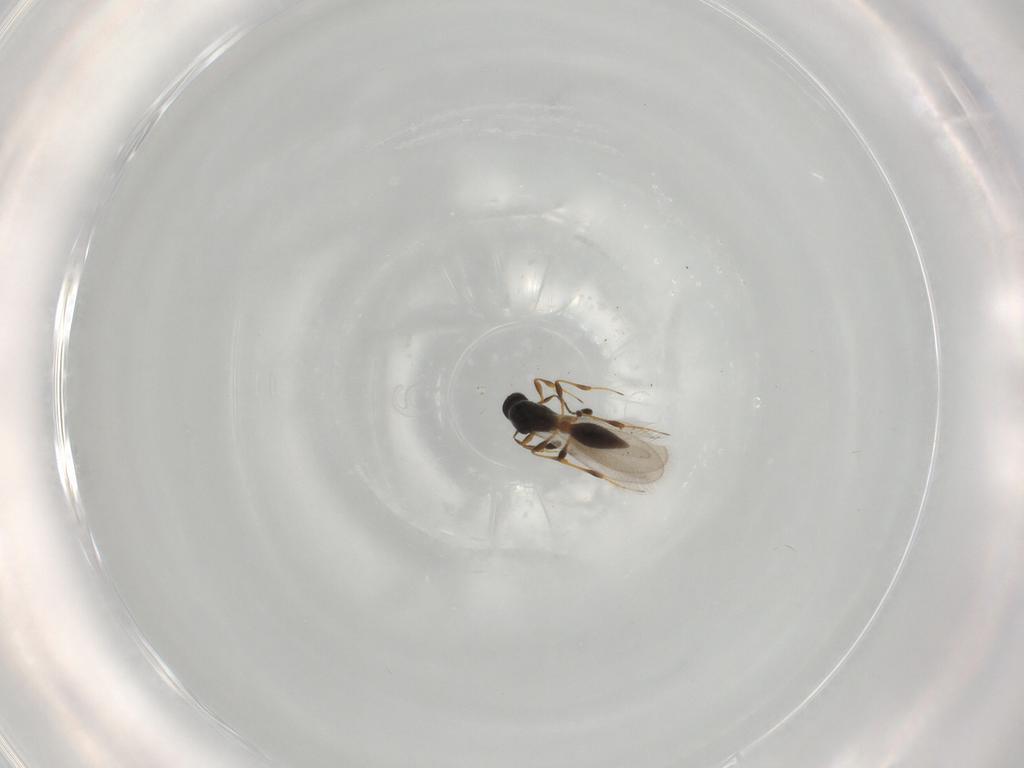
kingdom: Animalia
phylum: Arthropoda
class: Insecta
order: Hymenoptera
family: Platygastridae
